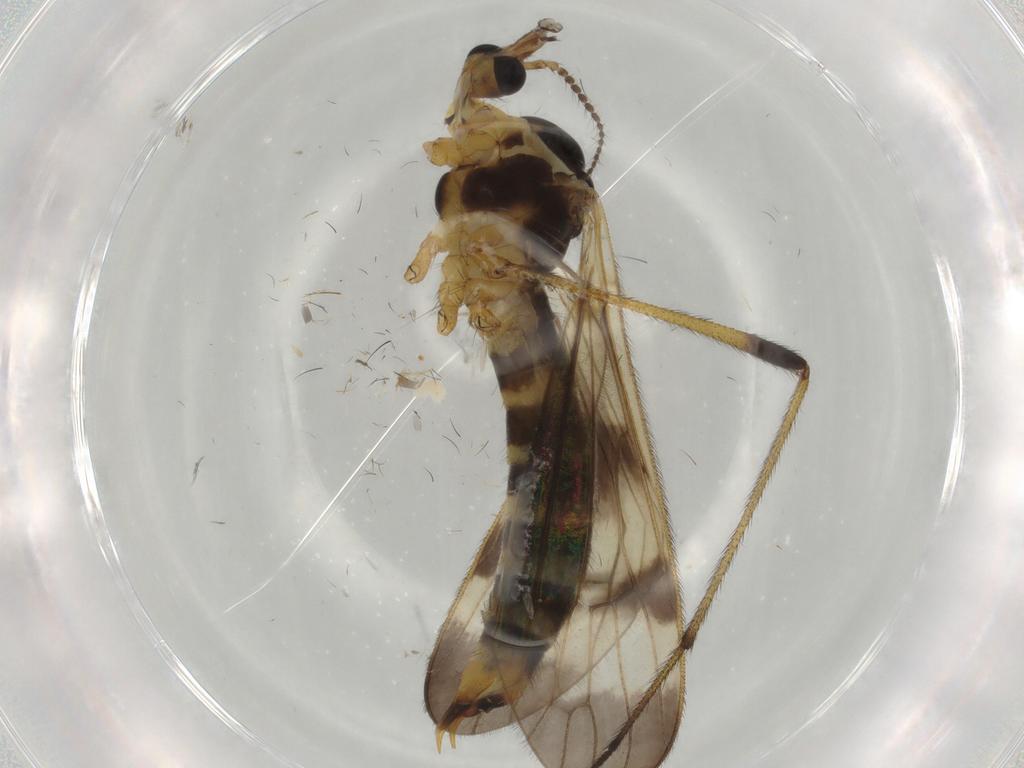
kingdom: Animalia
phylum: Arthropoda
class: Insecta
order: Diptera
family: Limoniidae
